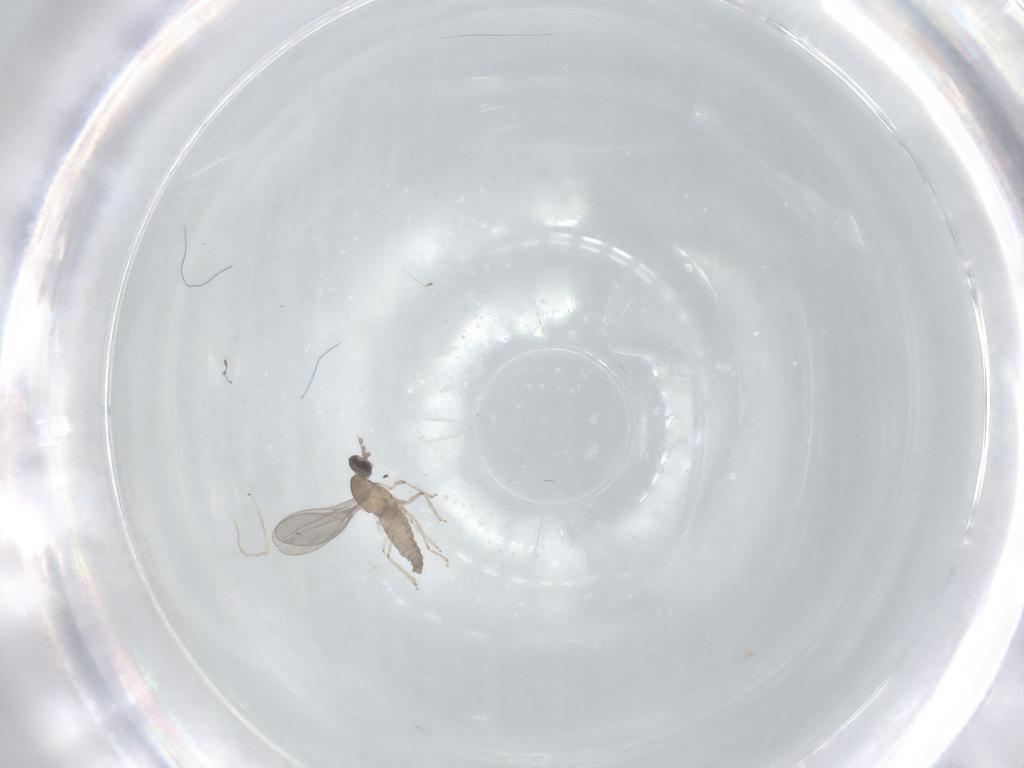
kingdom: Animalia
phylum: Arthropoda
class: Insecta
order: Diptera
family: Cecidomyiidae
